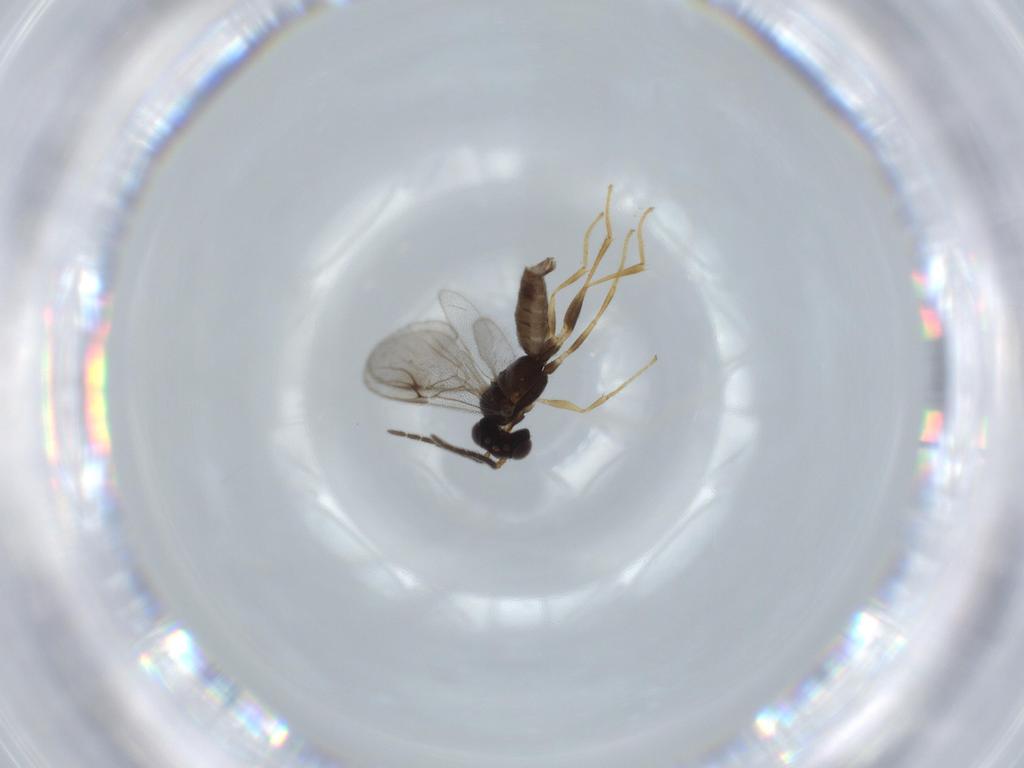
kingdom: Animalia
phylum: Arthropoda
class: Insecta
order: Hymenoptera
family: Dryinidae
